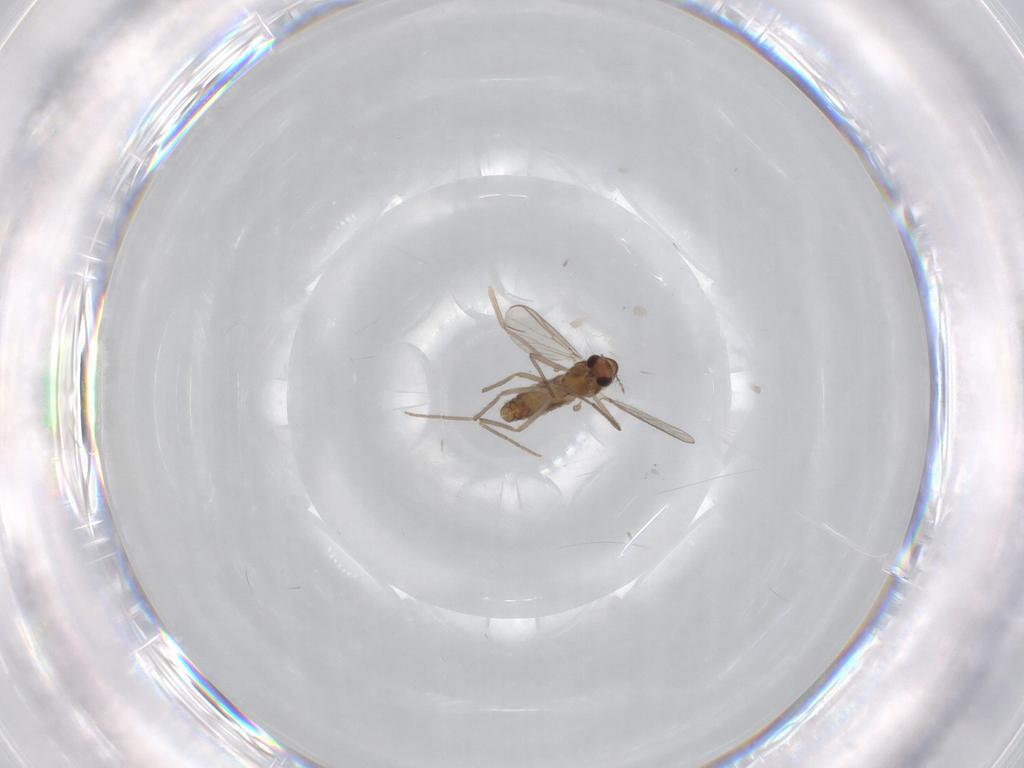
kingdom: Animalia
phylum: Arthropoda
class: Insecta
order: Diptera
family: Chironomidae
